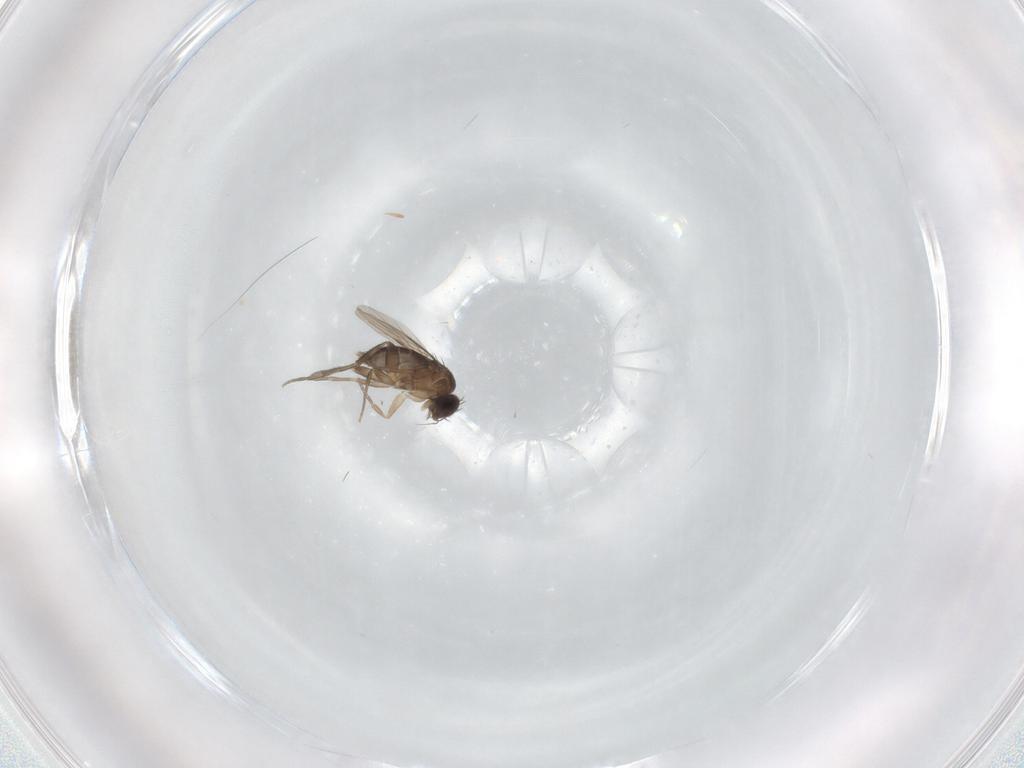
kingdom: Animalia
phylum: Arthropoda
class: Insecta
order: Diptera
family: Phoridae
